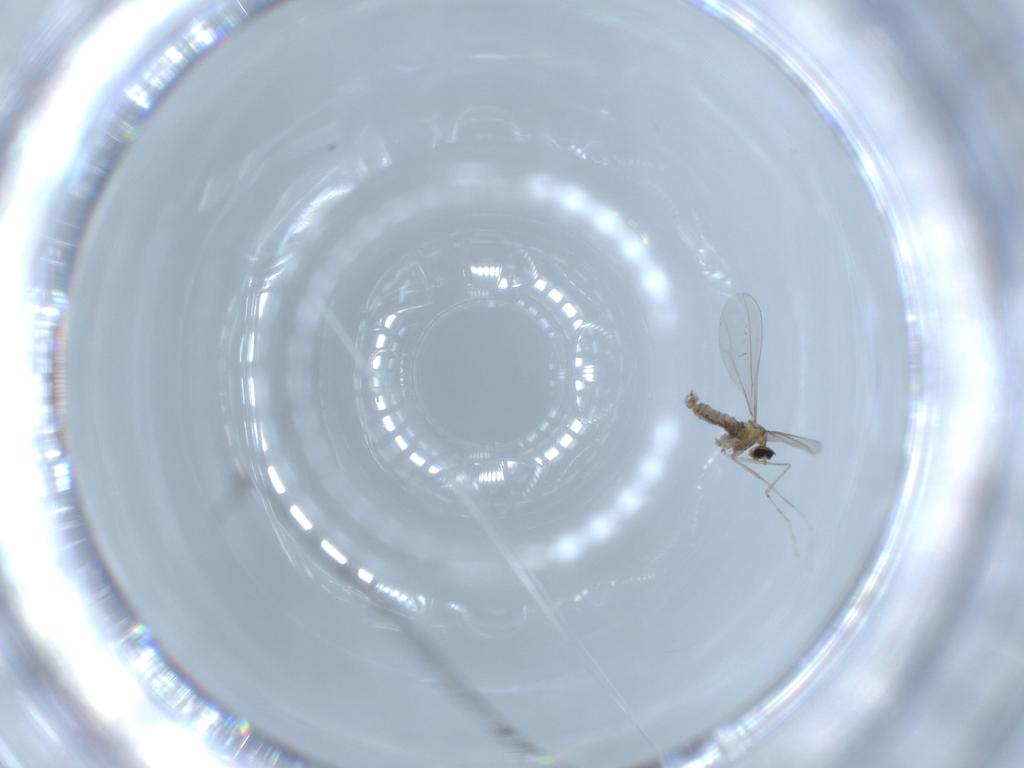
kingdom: Animalia
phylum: Arthropoda
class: Insecta
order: Diptera
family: Cecidomyiidae
